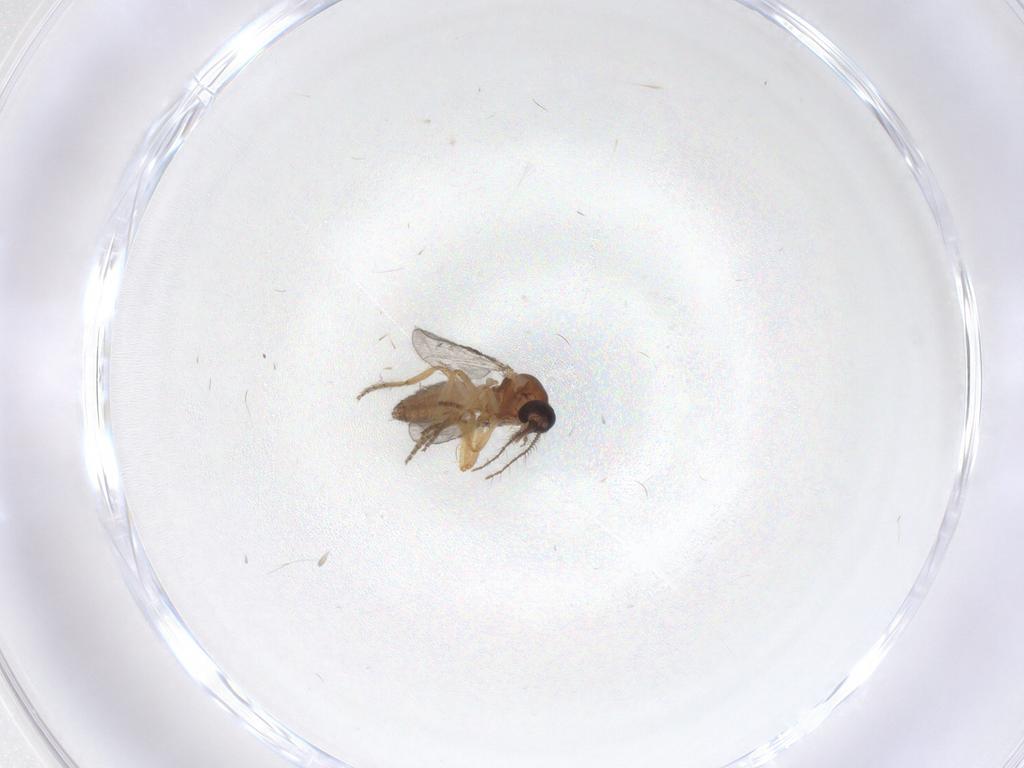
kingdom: Animalia
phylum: Arthropoda
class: Insecta
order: Diptera
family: Ceratopogonidae
